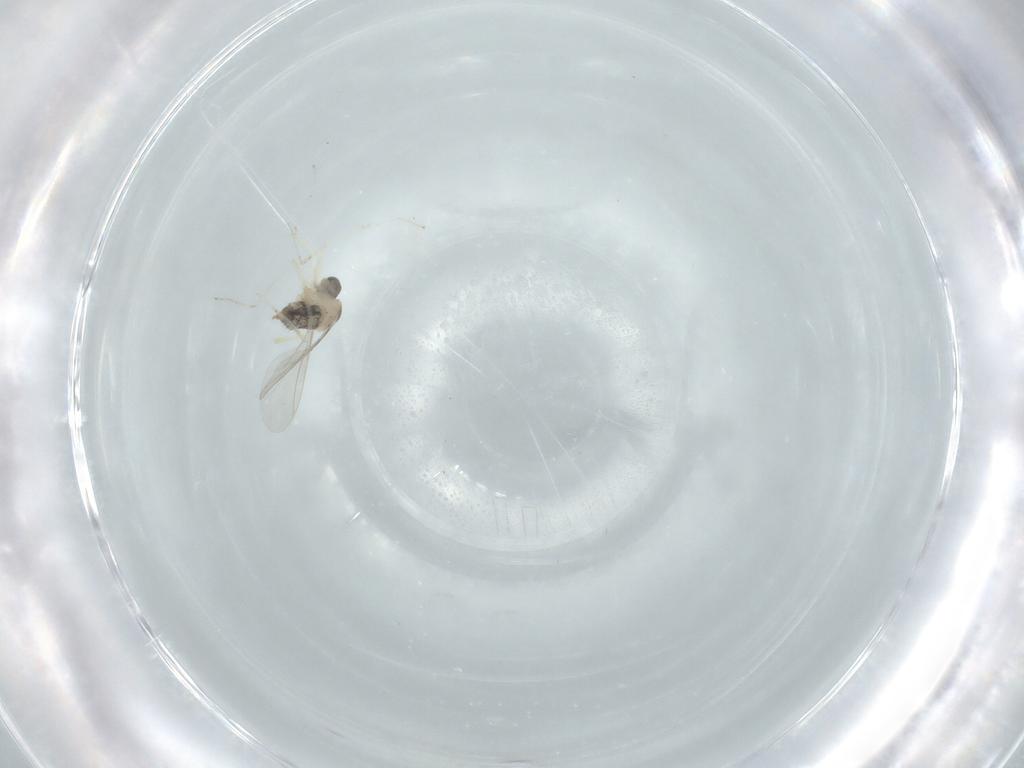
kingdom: Animalia
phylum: Arthropoda
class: Insecta
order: Diptera
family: Cecidomyiidae
